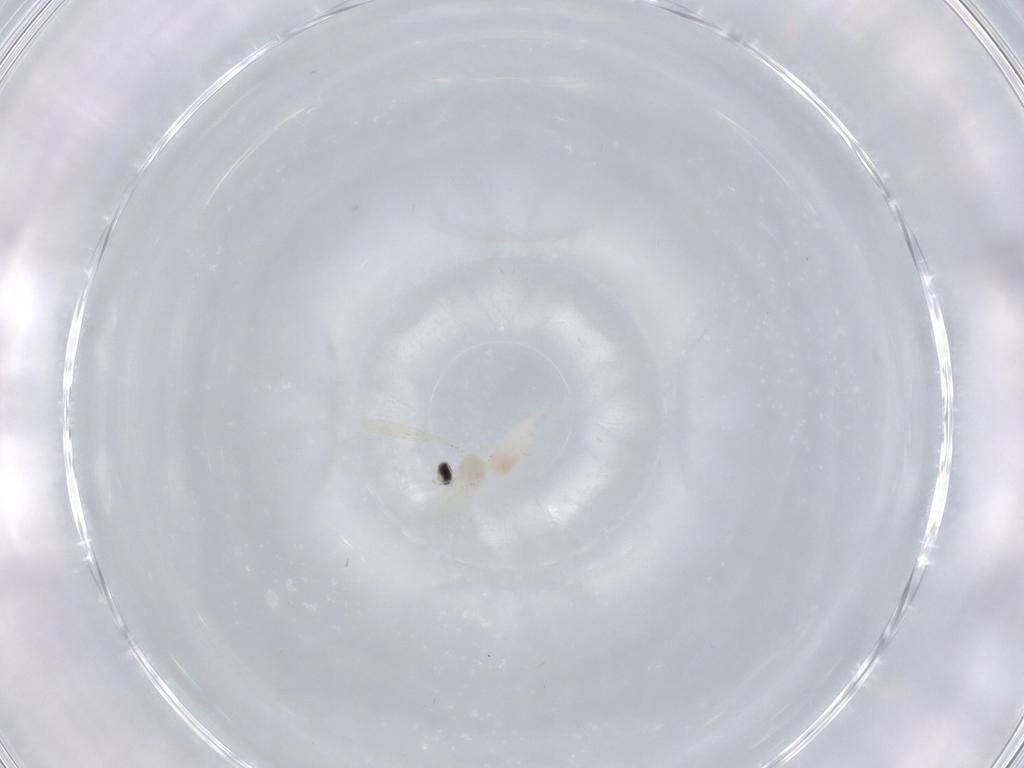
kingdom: Animalia
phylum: Arthropoda
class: Insecta
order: Diptera
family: Cecidomyiidae
